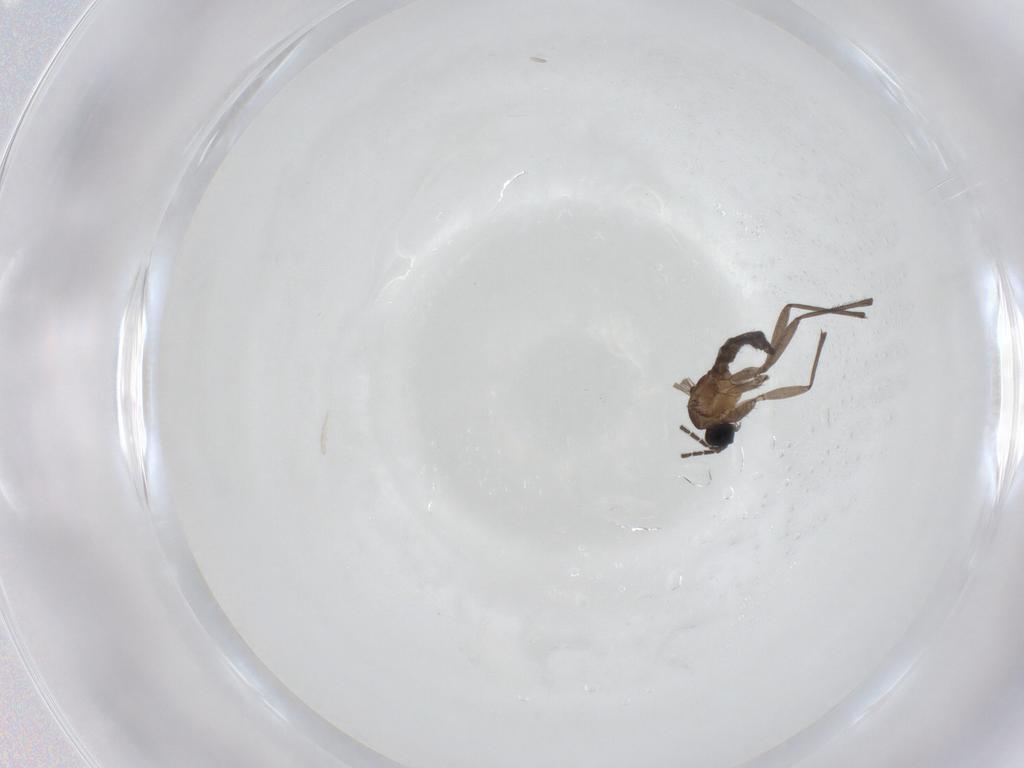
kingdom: Animalia
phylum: Arthropoda
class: Insecta
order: Diptera
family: Sciaridae
